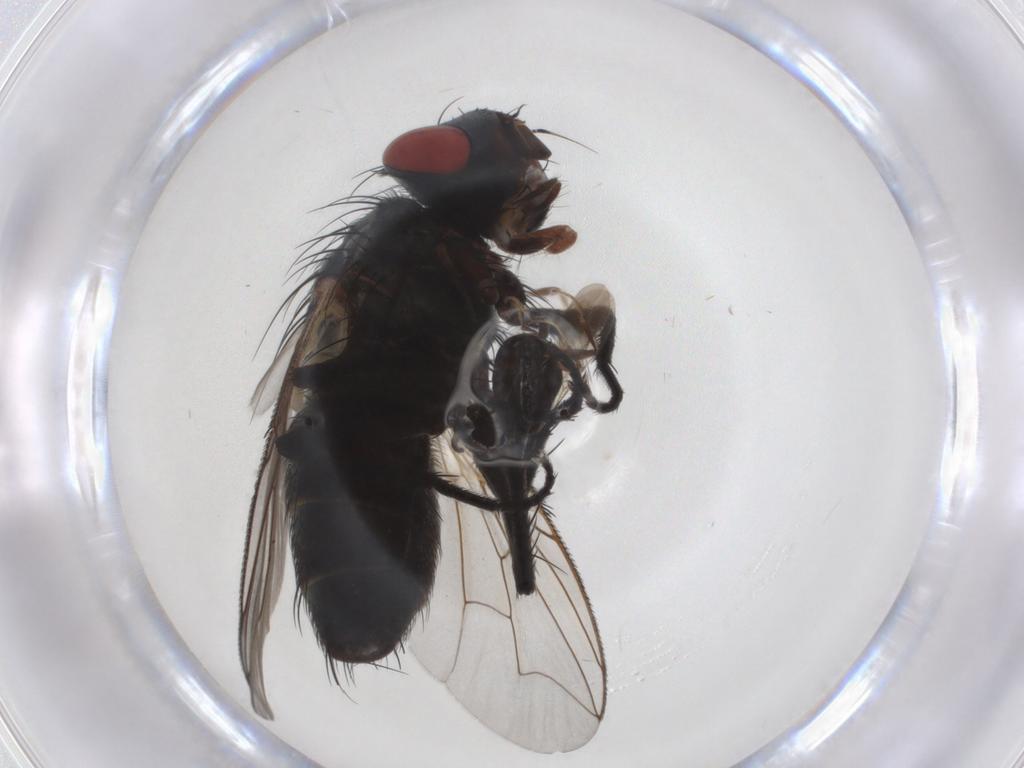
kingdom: Animalia
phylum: Arthropoda
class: Insecta
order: Diptera
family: Sarcophagidae
